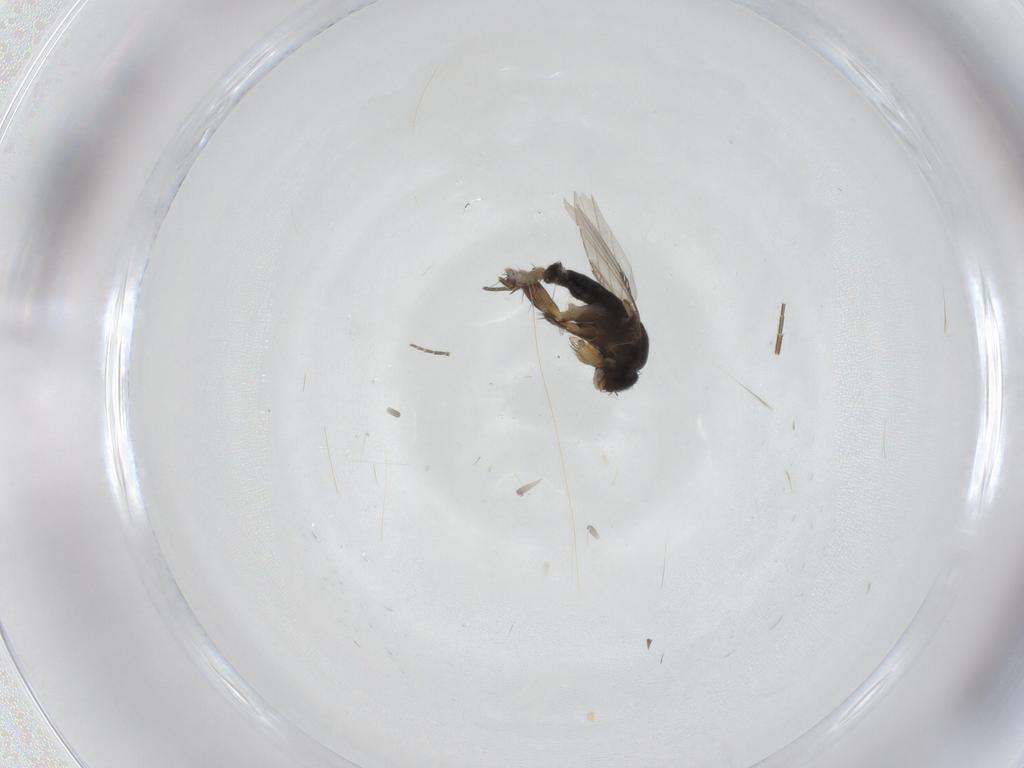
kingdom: Animalia
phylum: Arthropoda
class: Insecta
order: Diptera
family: Phoridae
